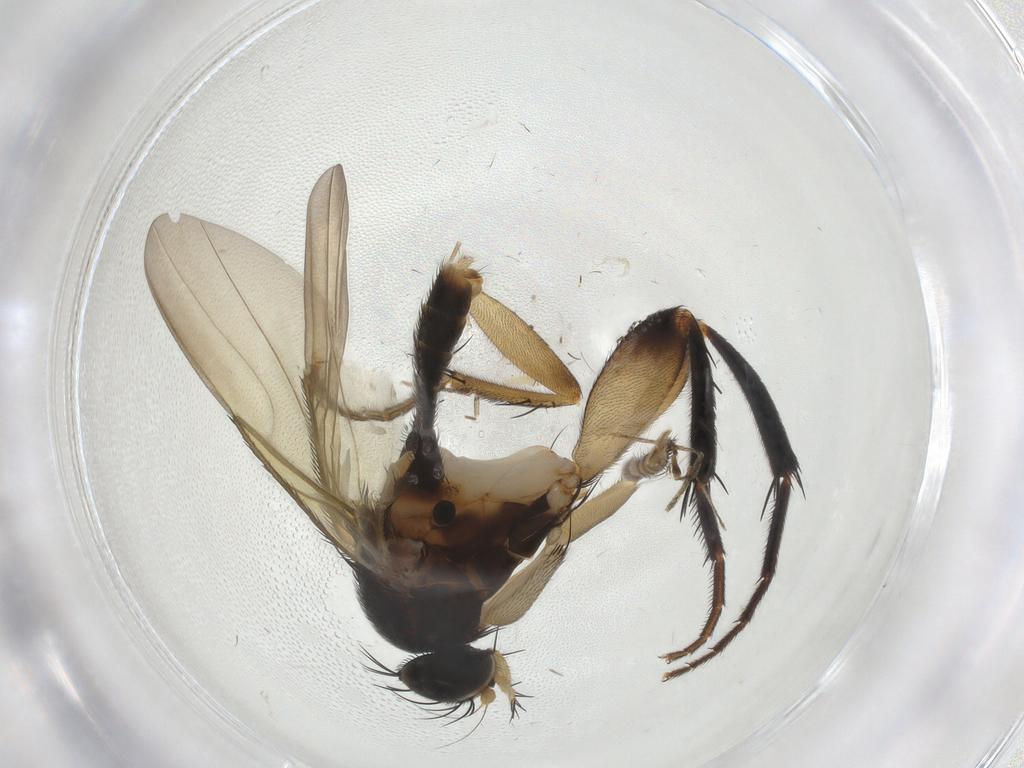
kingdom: Animalia
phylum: Arthropoda
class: Insecta
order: Diptera
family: Phoridae
